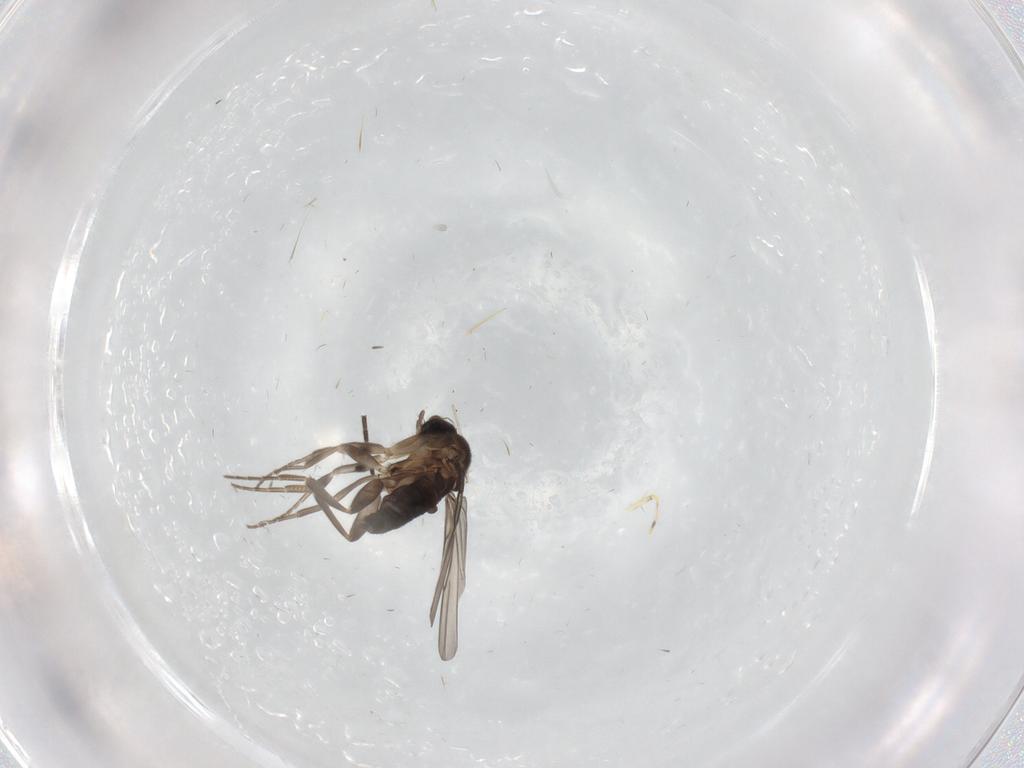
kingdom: Animalia
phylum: Arthropoda
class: Insecta
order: Diptera
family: Phoridae
